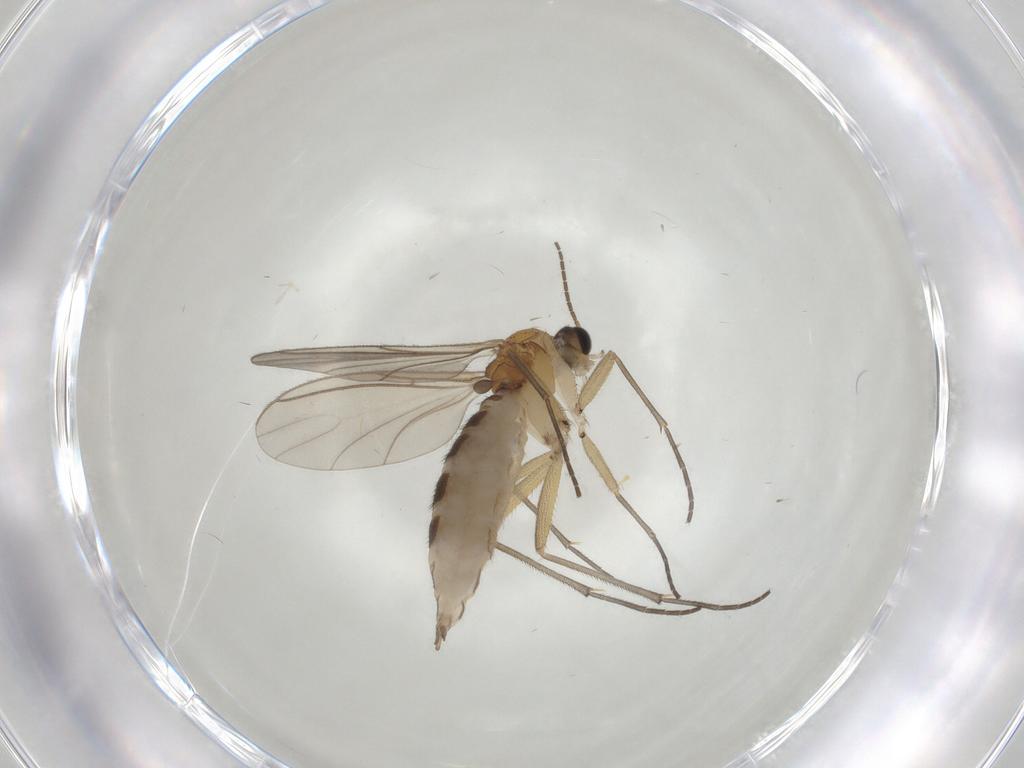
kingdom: Animalia
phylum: Arthropoda
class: Insecta
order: Diptera
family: Sciaridae
